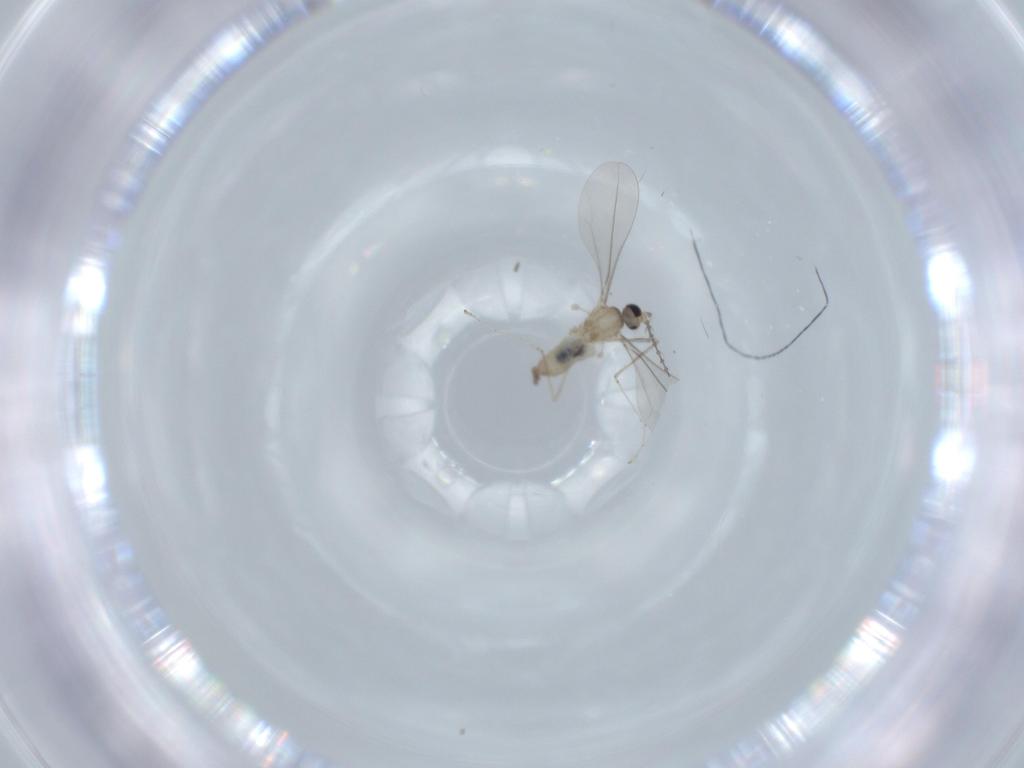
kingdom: Animalia
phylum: Arthropoda
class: Insecta
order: Diptera
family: Cecidomyiidae
